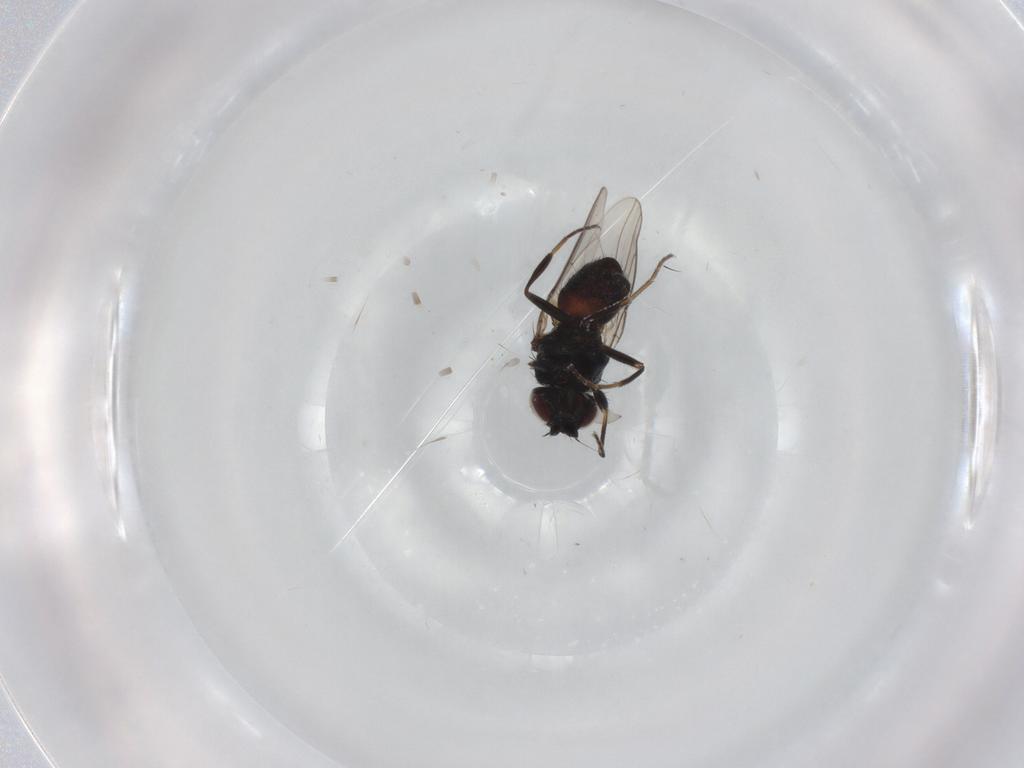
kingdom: Animalia
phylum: Arthropoda
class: Insecta
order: Diptera
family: Chloropidae
